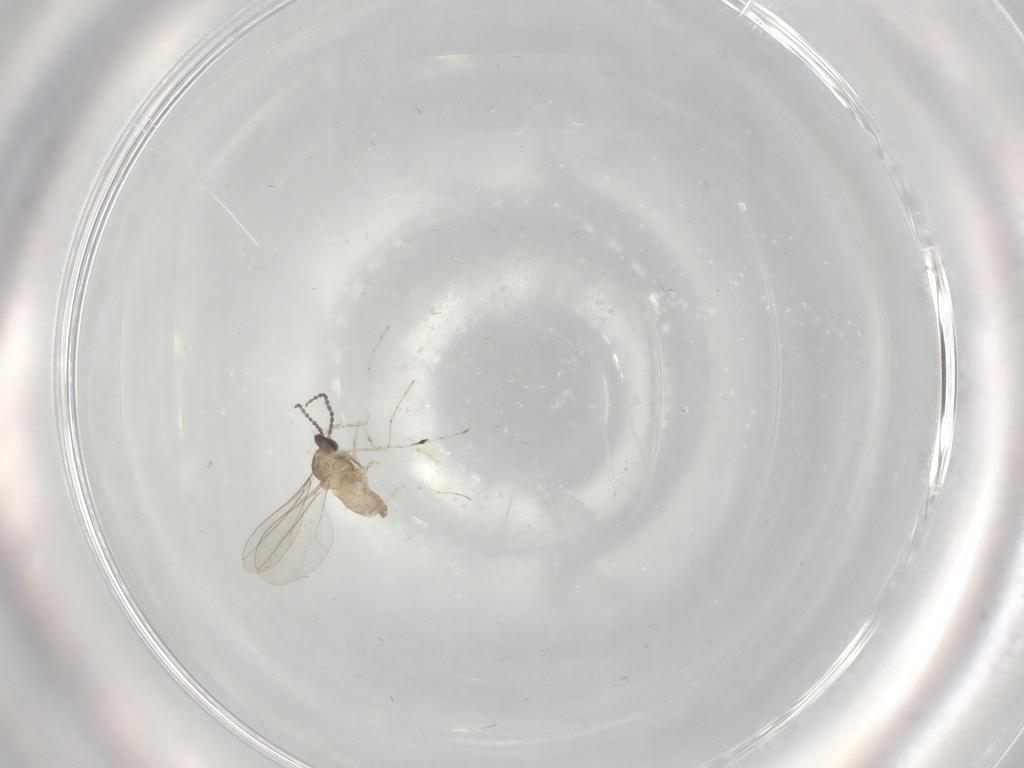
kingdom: Animalia
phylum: Arthropoda
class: Insecta
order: Diptera
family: Cecidomyiidae
